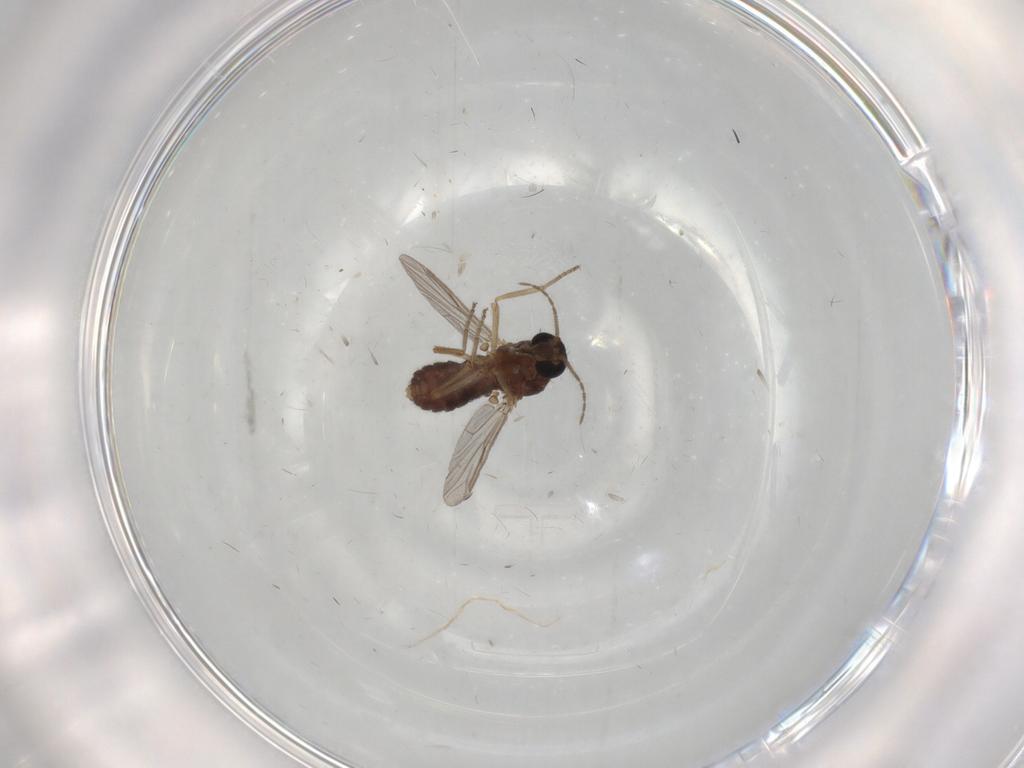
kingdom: Animalia
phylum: Arthropoda
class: Insecta
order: Diptera
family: Ceratopogonidae
